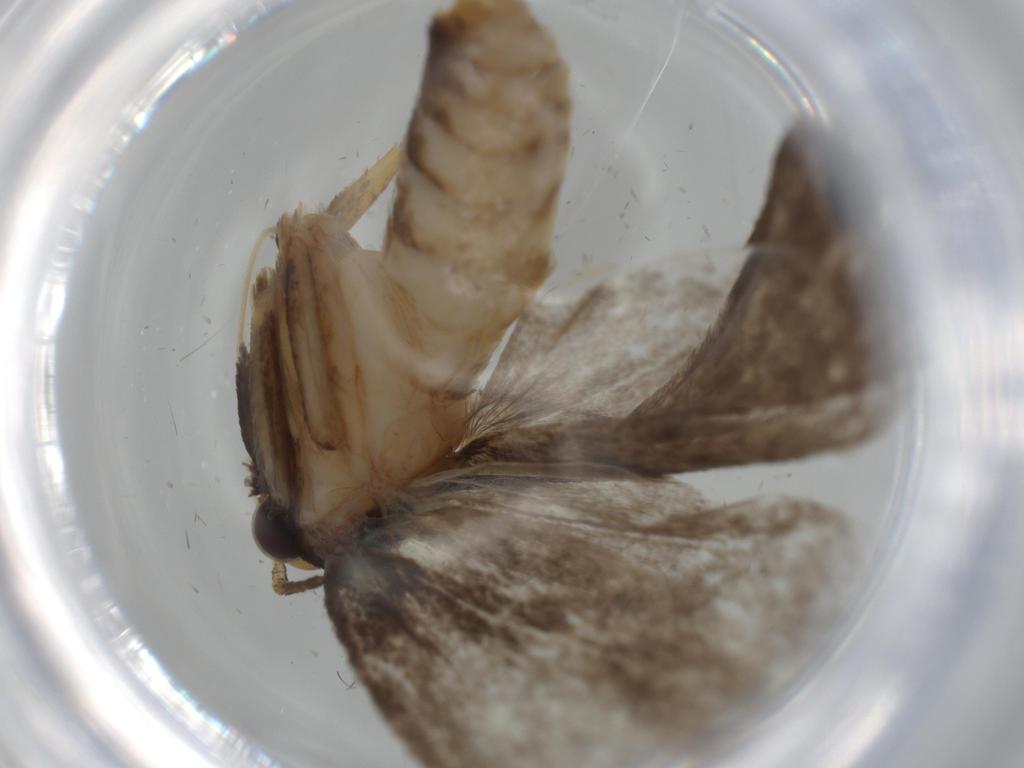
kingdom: Animalia
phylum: Arthropoda
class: Insecta
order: Lepidoptera
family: Oecophoridae
